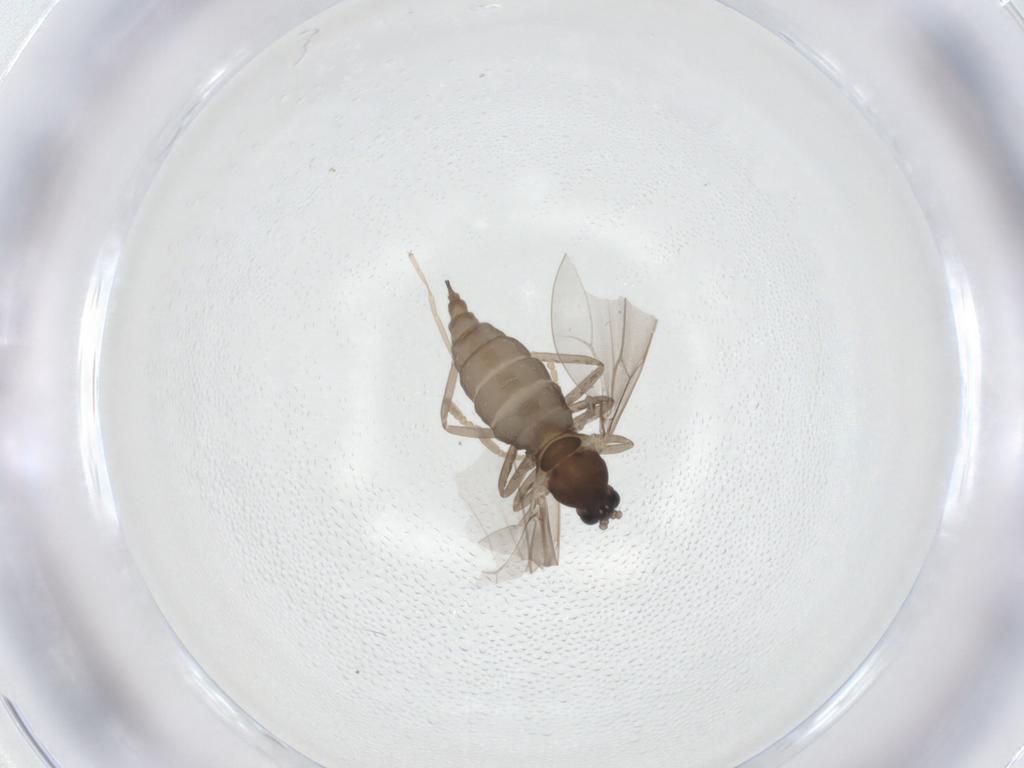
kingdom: Animalia
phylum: Arthropoda
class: Insecta
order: Diptera
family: Cecidomyiidae
